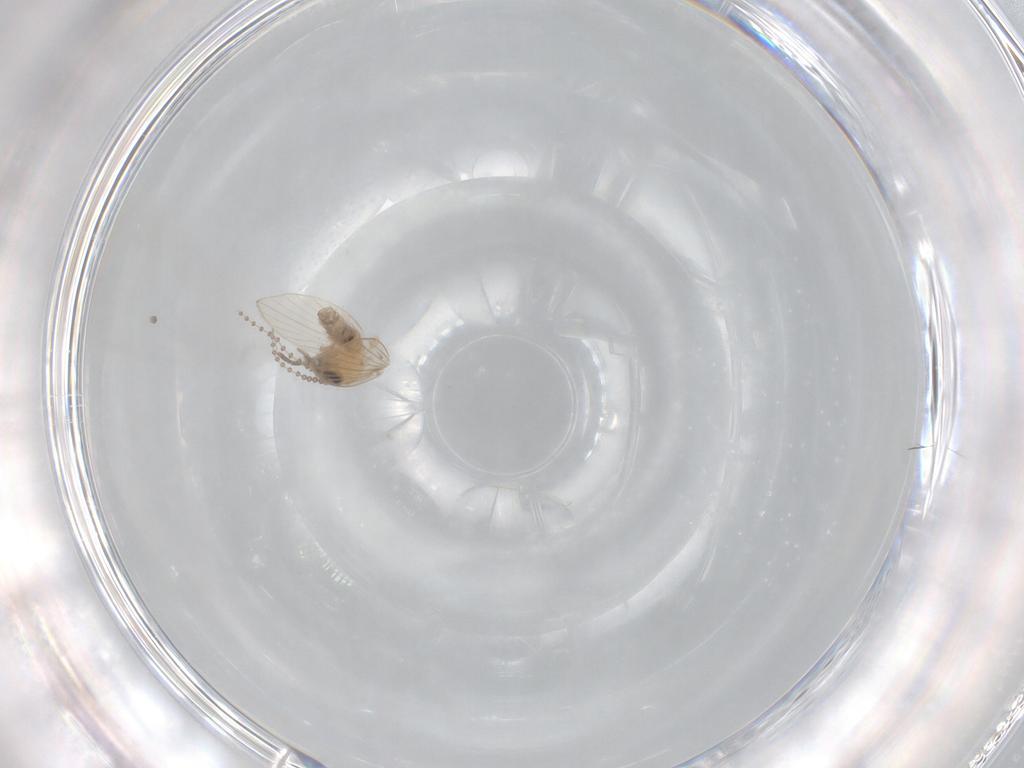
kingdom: Animalia
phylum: Arthropoda
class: Insecta
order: Diptera
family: Psychodidae
